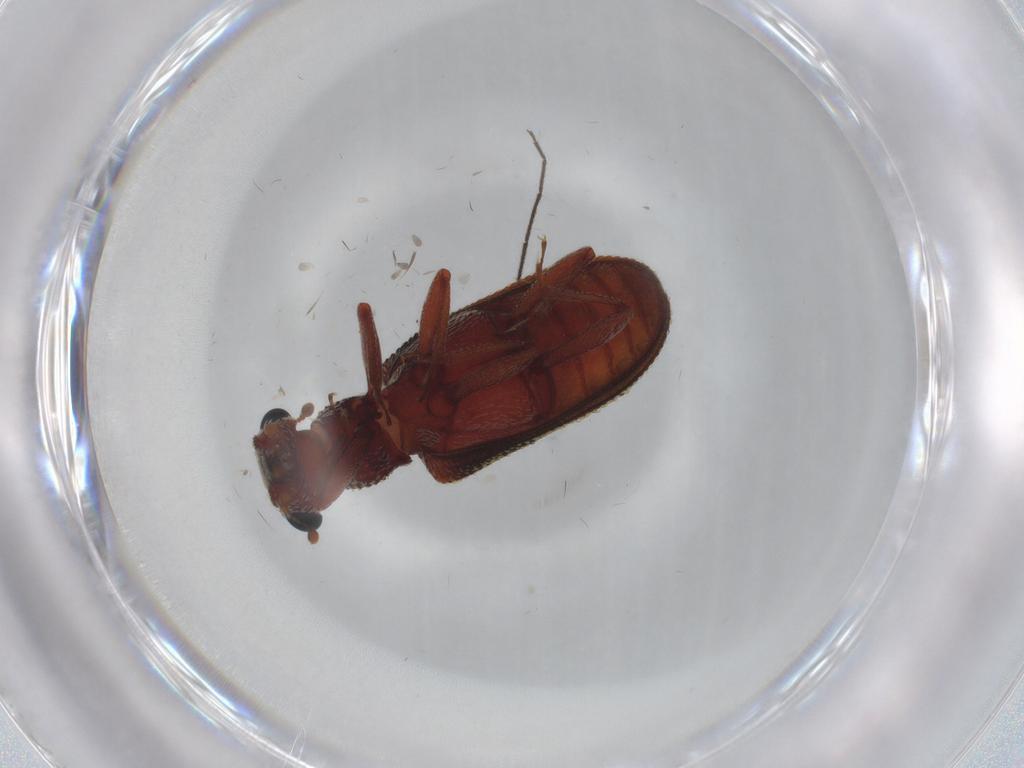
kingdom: Animalia
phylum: Arthropoda
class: Insecta
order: Coleoptera
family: Zopheridae
